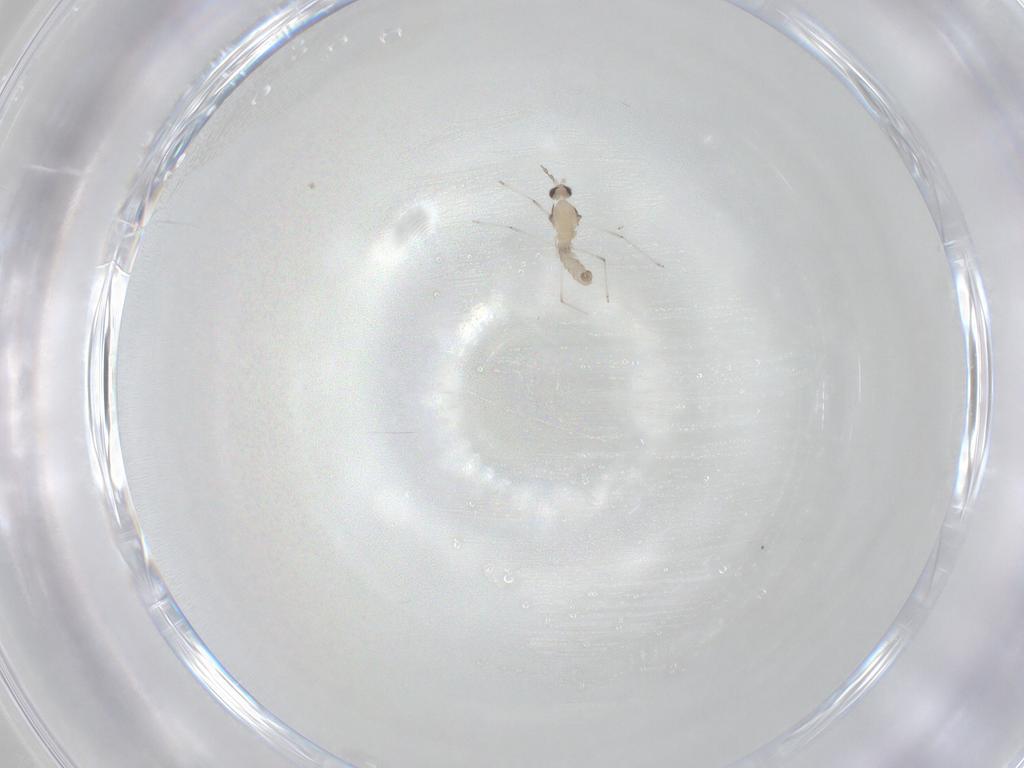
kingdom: Animalia
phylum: Arthropoda
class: Insecta
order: Diptera
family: Cecidomyiidae
